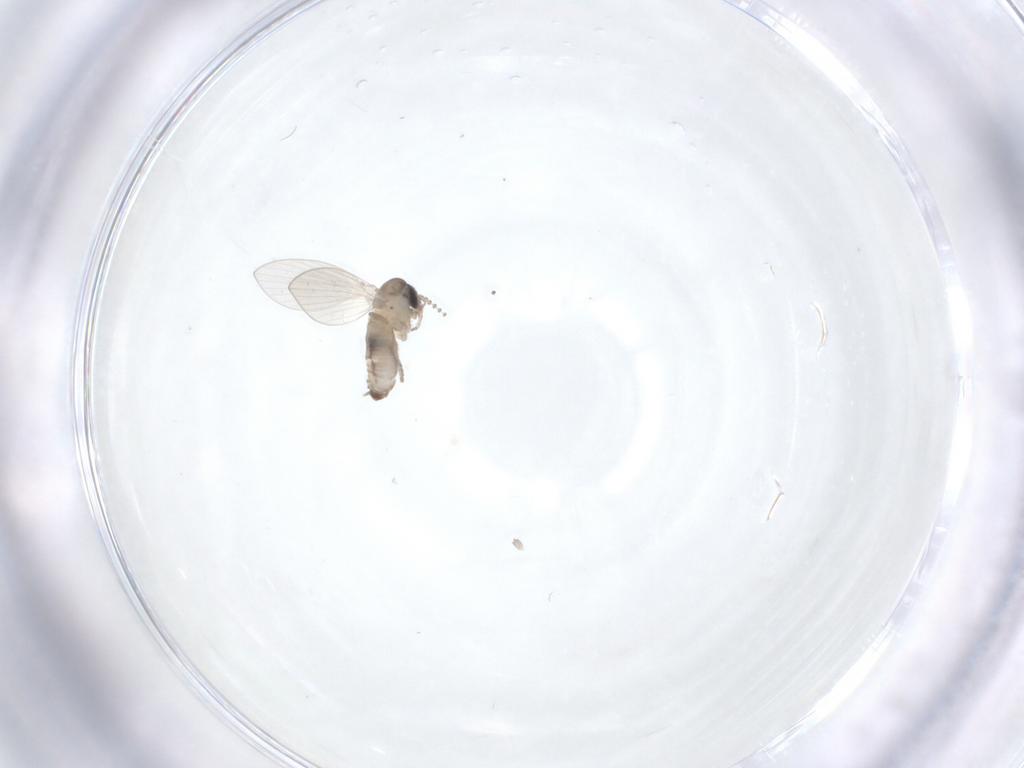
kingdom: Animalia
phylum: Arthropoda
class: Insecta
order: Diptera
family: Psychodidae
